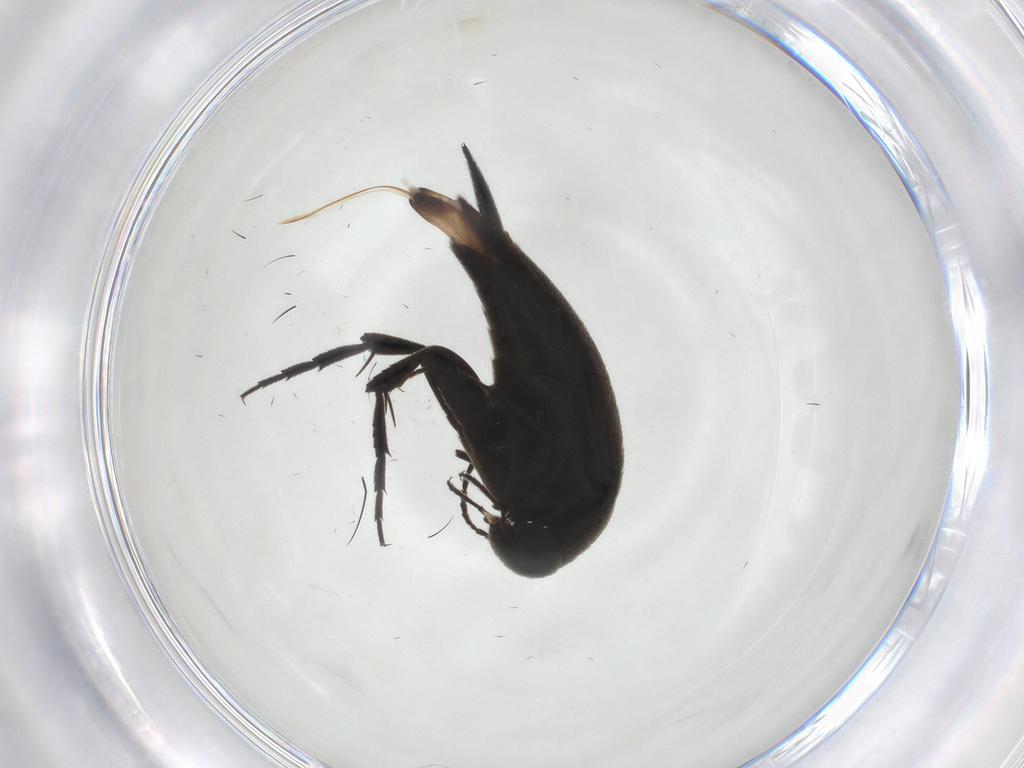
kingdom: Animalia
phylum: Arthropoda
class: Insecta
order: Coleoptera
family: Mordellidae
